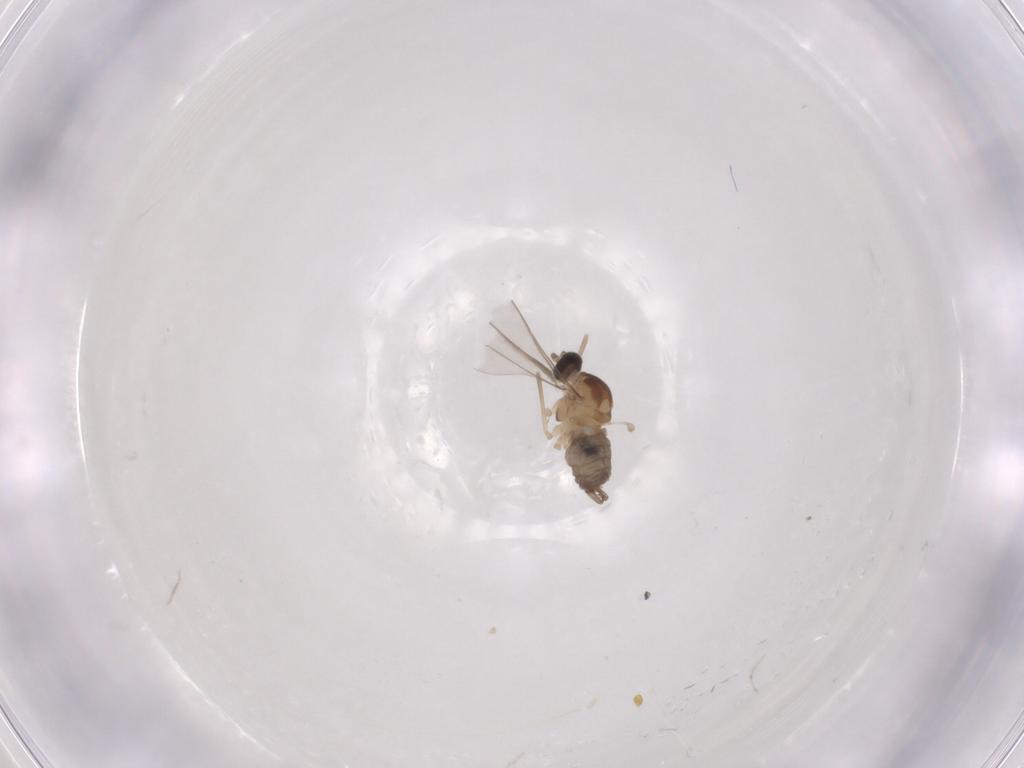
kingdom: Animalia
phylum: Arthropoda
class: Insecta
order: Diptera
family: Cecidomyiidae
